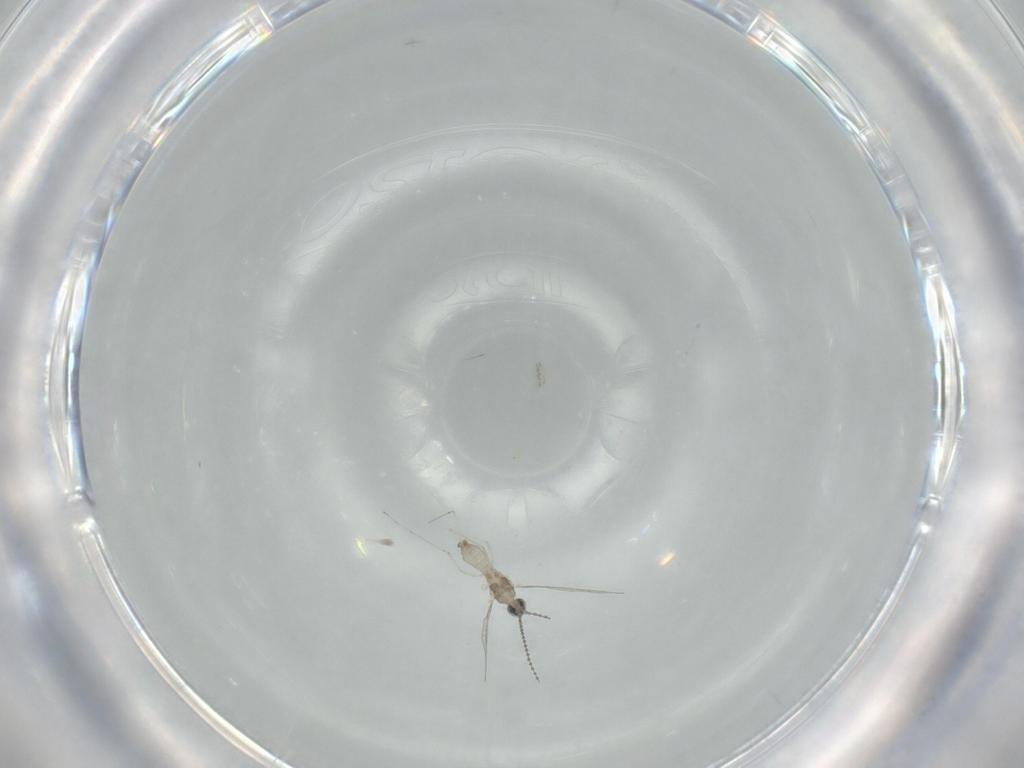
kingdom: Animalia
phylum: Arthropoda
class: Insecta
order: Diptera
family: Cecidomyiidae
